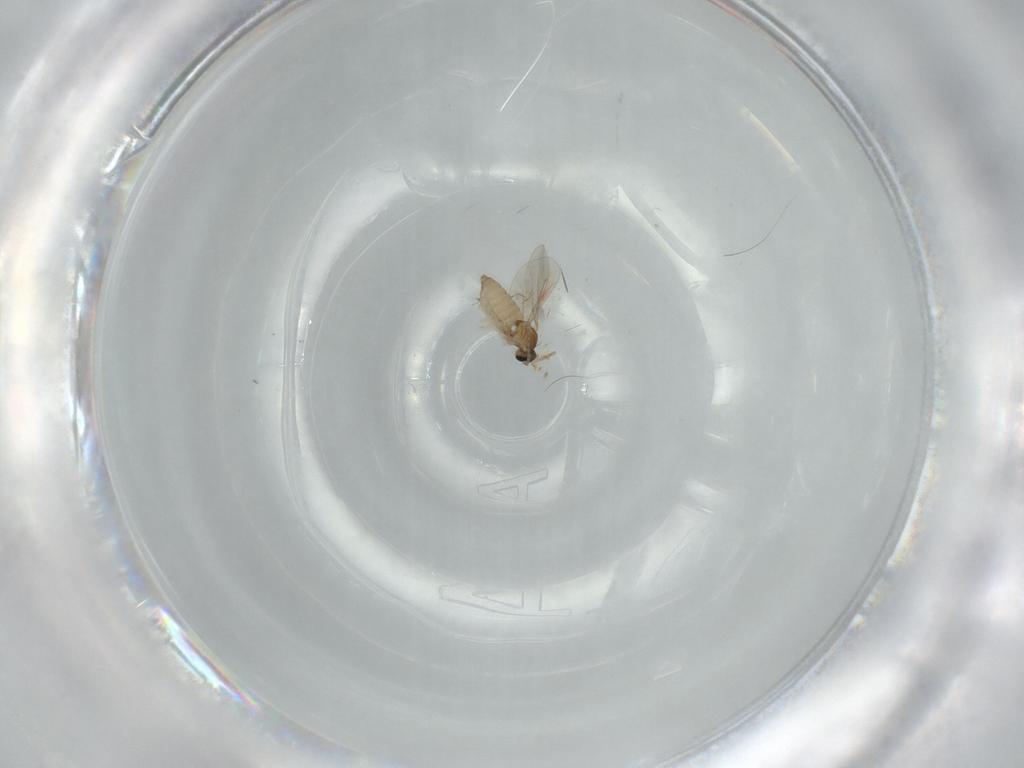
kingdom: Animalia
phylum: Arthropoda
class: Insecta
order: Diptera
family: Cecidomyiidae
